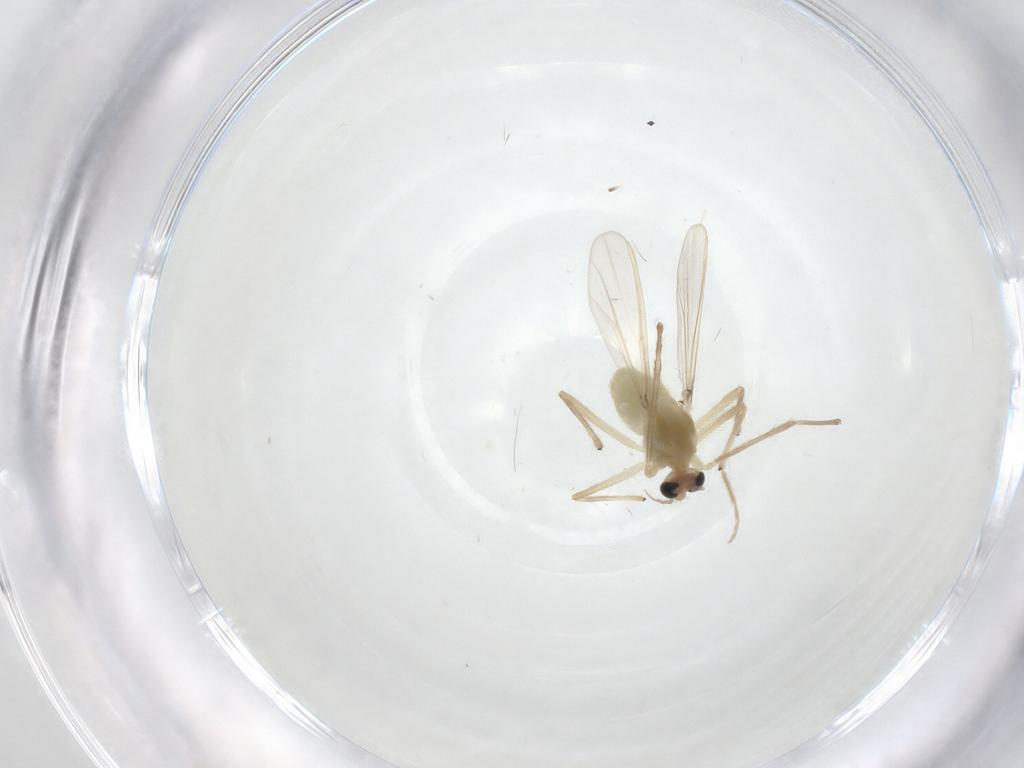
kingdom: Animalia
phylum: Arthropoda
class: Insecta
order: Diptera
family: Chironomidae
